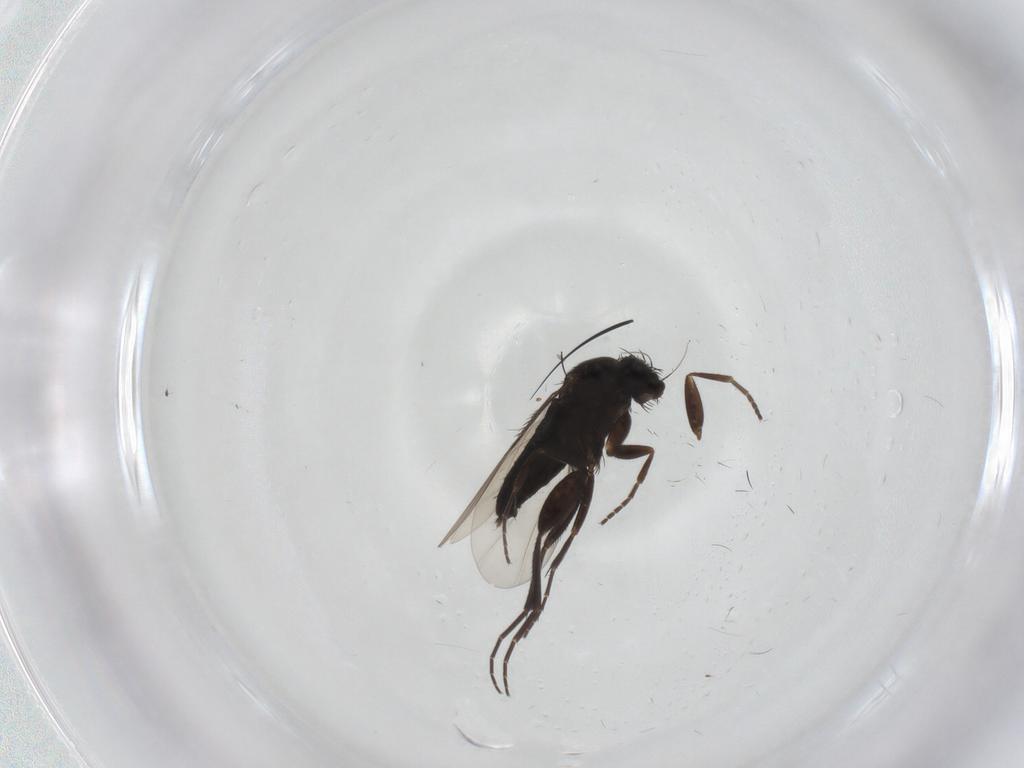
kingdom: Animalia
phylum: Arthropoda
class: Insecta
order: Diptera
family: Phoridae
